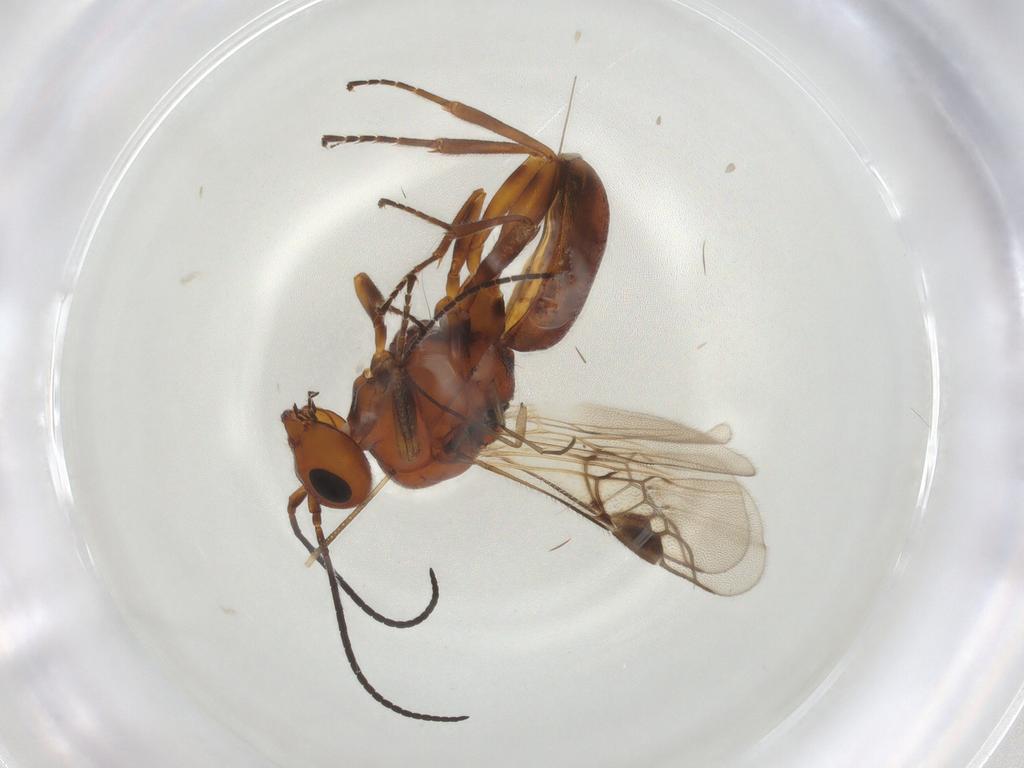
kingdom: Animalia
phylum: Arthropoda
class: Insecta
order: Hymenoptera
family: Braconidae
